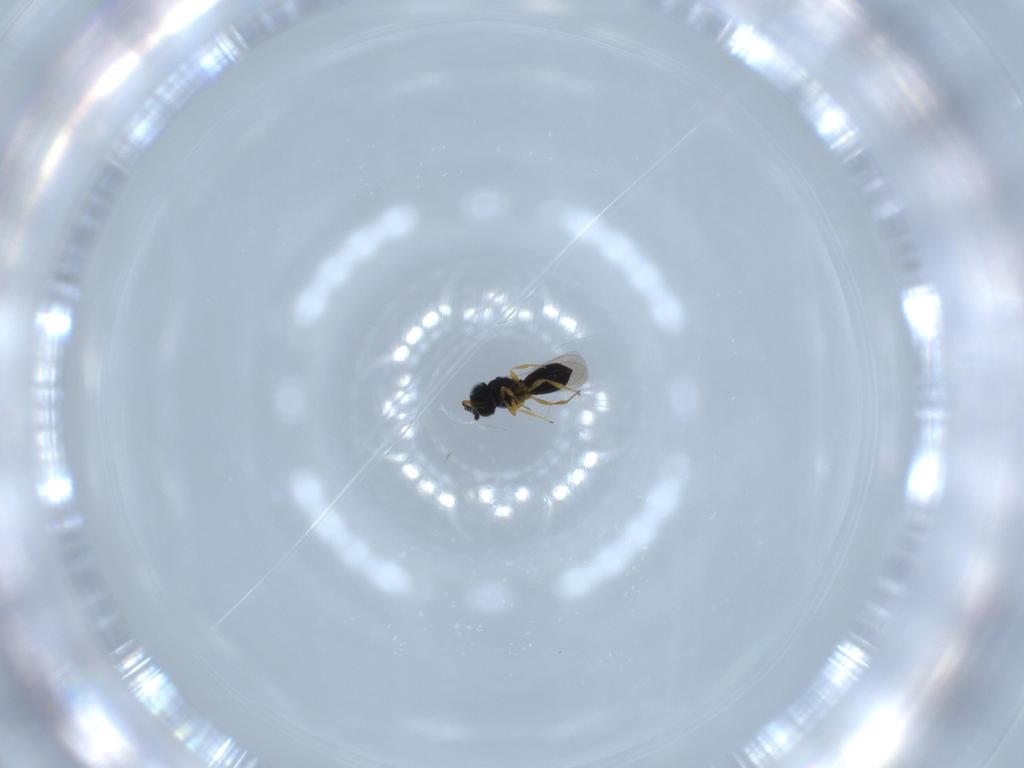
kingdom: Animalia
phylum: Arthropoda
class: Insecta
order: Hymenoptera
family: Scelionidae
